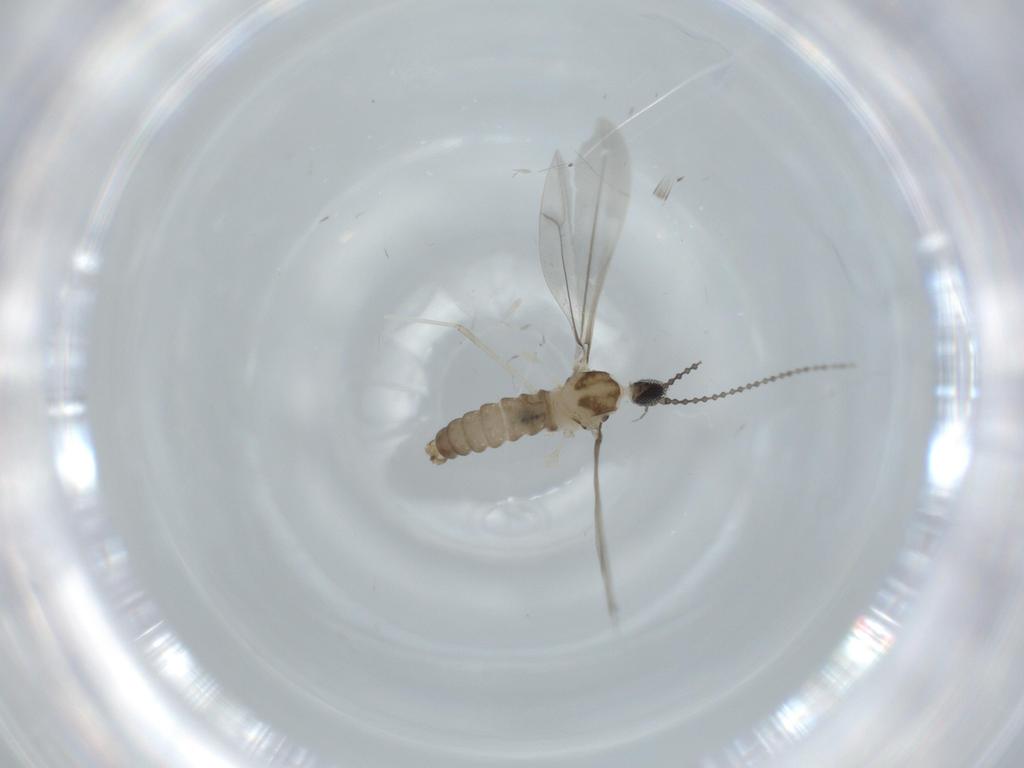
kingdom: Animalia
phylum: Arthropoda
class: Insecta
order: Diptera
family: Cecidomyiidae
